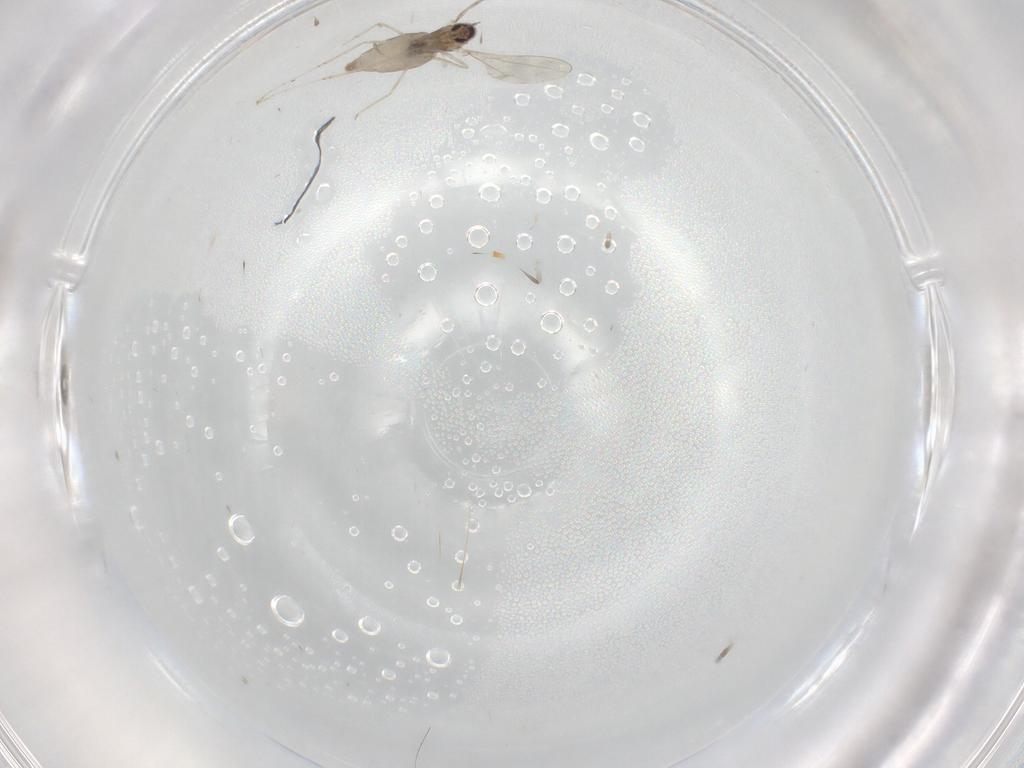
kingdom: Animalia
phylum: Arthropoda
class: Insecta
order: Diptera
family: Cecidomyiidae
